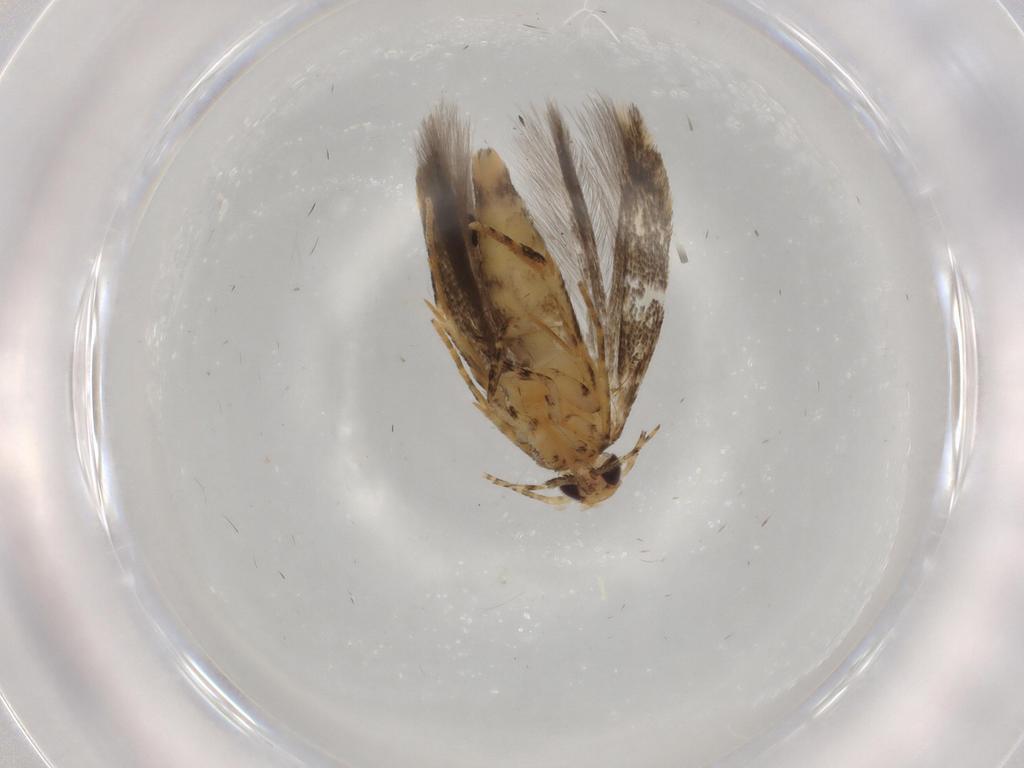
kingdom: Animalia
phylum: Arthropoda
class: Insecta
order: Lepidoptera
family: Gelechiidae
